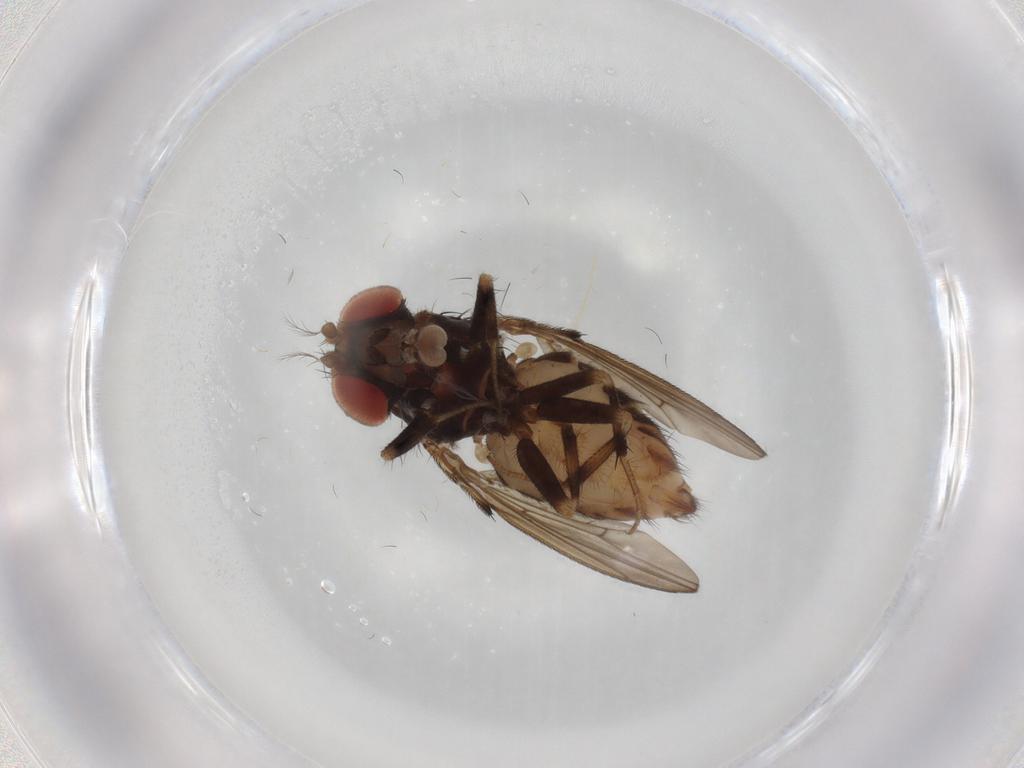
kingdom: Animalia
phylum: Arthropoda
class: Insecta
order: Diptera
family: Drosophilidae
